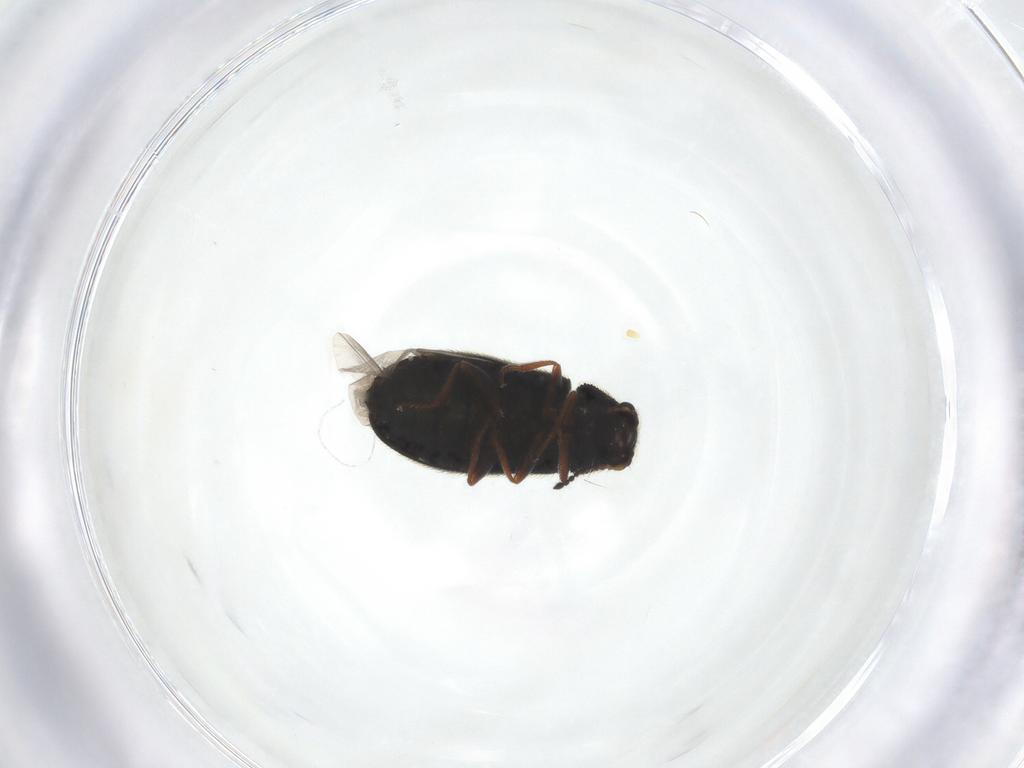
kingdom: Animalia
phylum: Arthropoda
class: Insecta
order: Coleoptera
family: Melyridae
